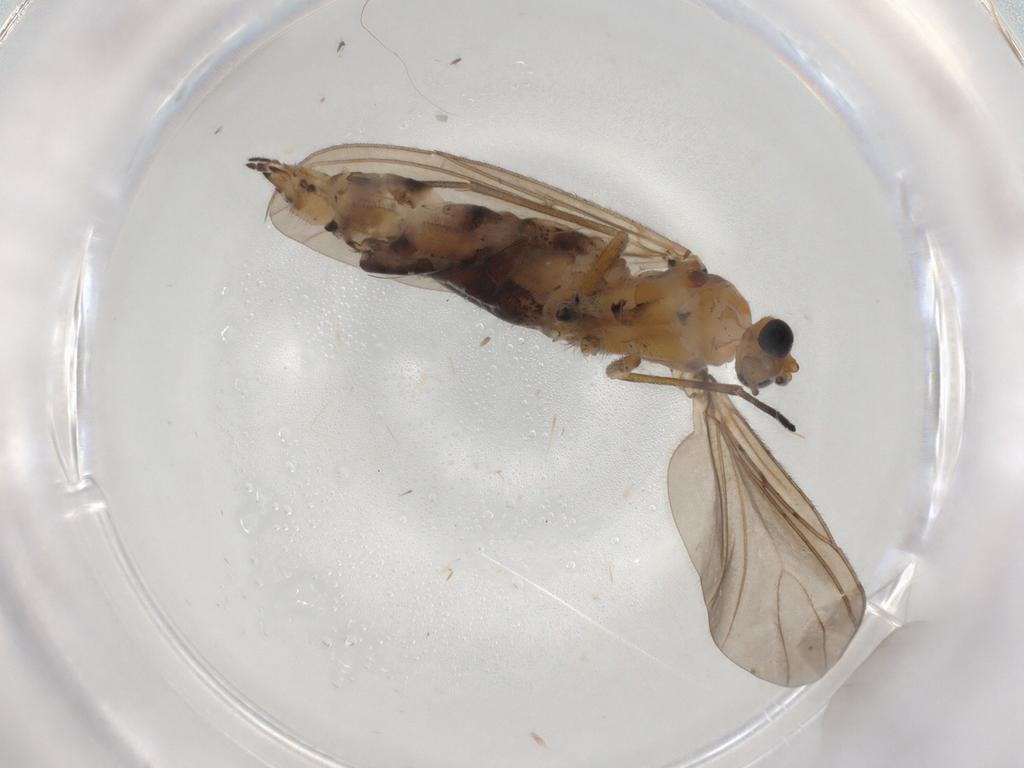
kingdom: Animalia
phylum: Arthropoda
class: Insecta
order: Diptera
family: Sciaridae
